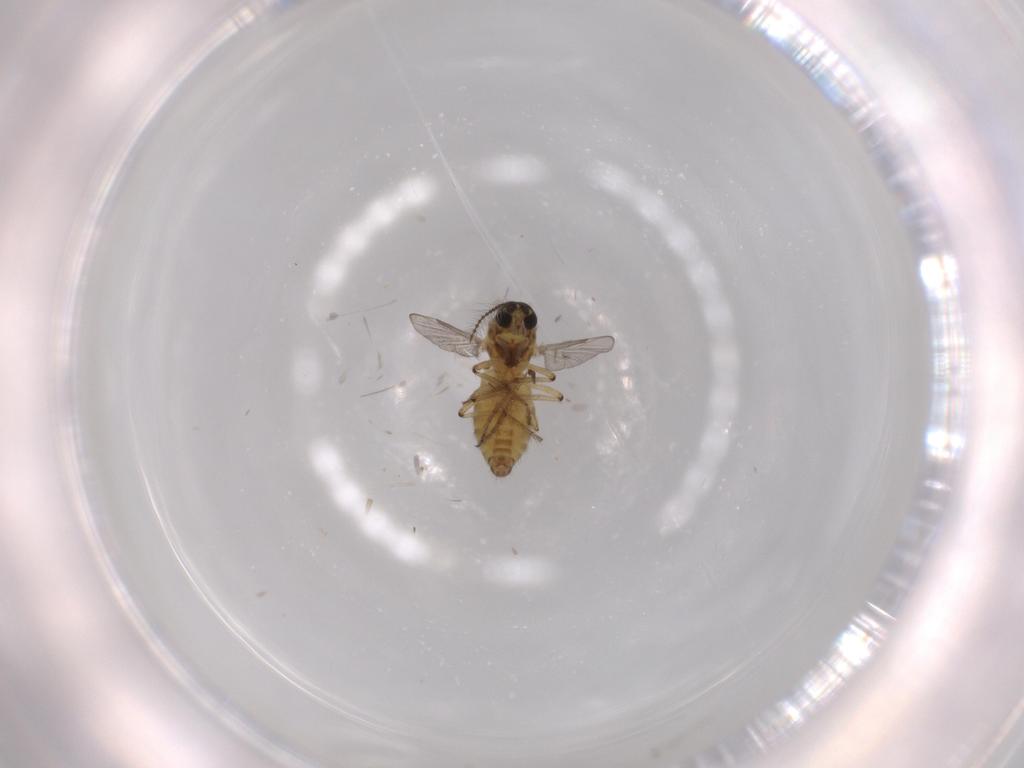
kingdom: Animalia
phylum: Arthropoda
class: Insecta
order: Diptera
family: Ceratopogonidae
